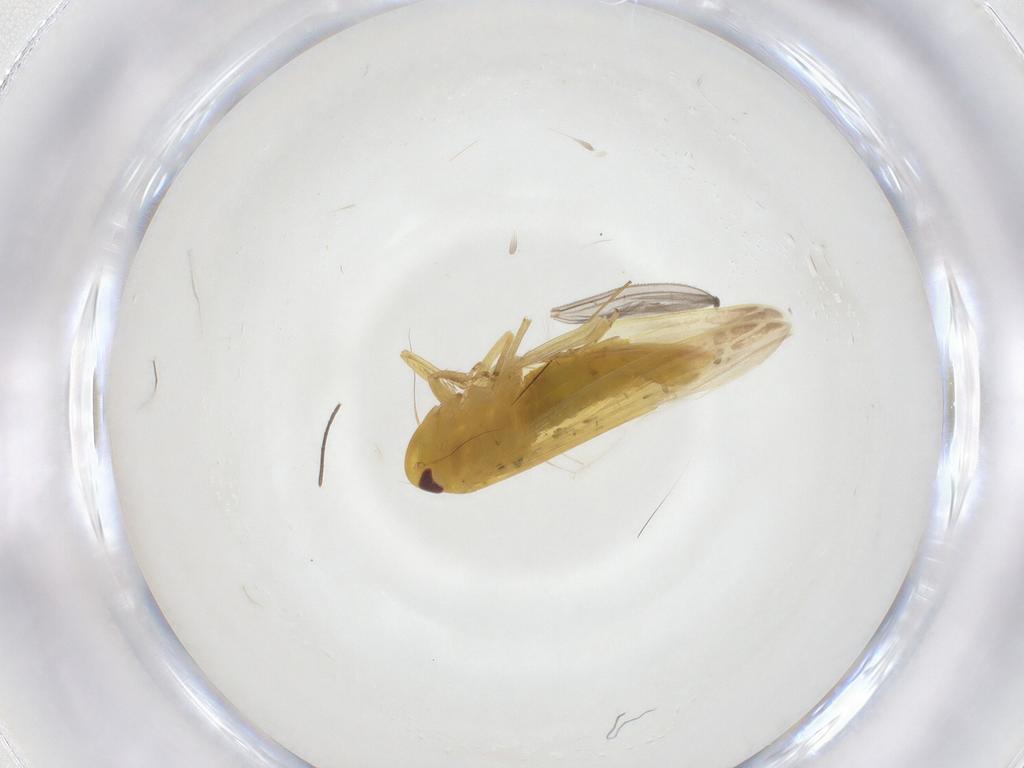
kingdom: Animalia
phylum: Arthropoda
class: Insecta
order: Hemiptera
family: Cicadellidae
